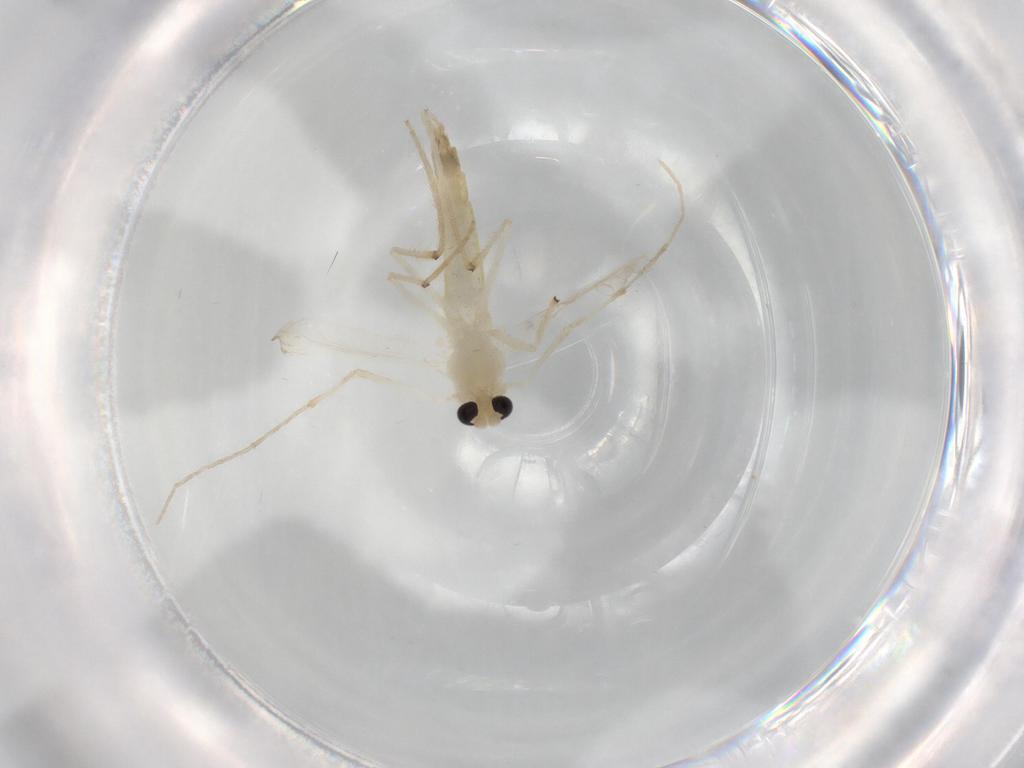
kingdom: Animalia
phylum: Arthropoda
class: Insecta
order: Diptera
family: Chironomidae
